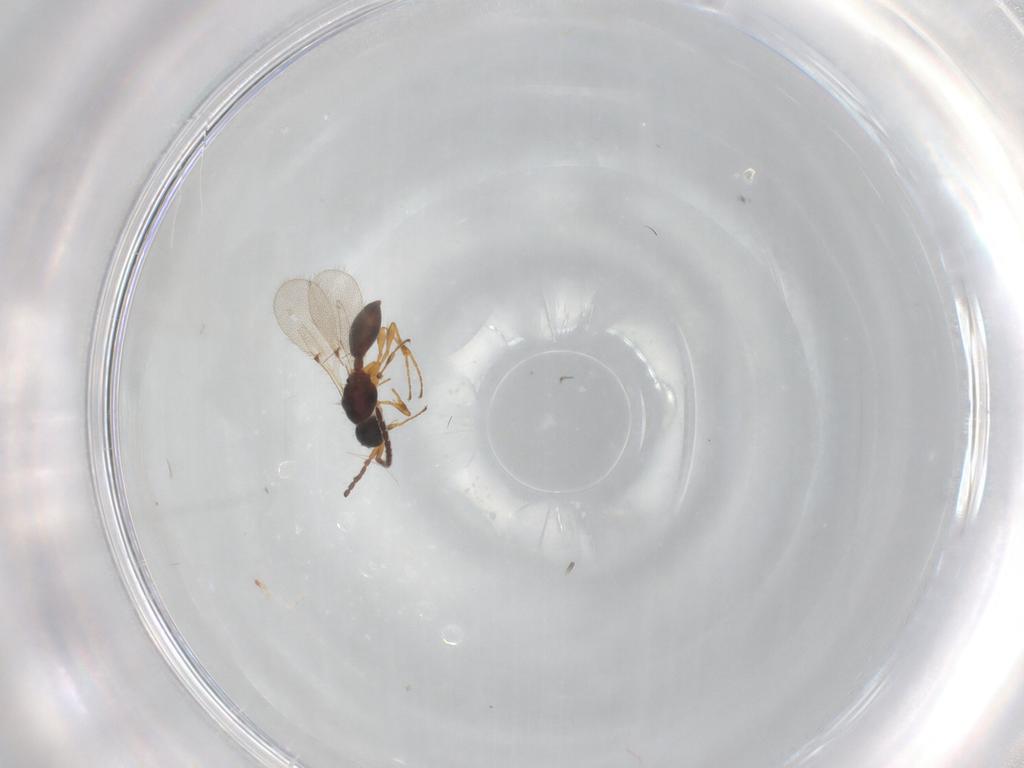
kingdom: Animalia
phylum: Arthropoda
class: Insecta
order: Hymenoptera
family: Diapriidae
